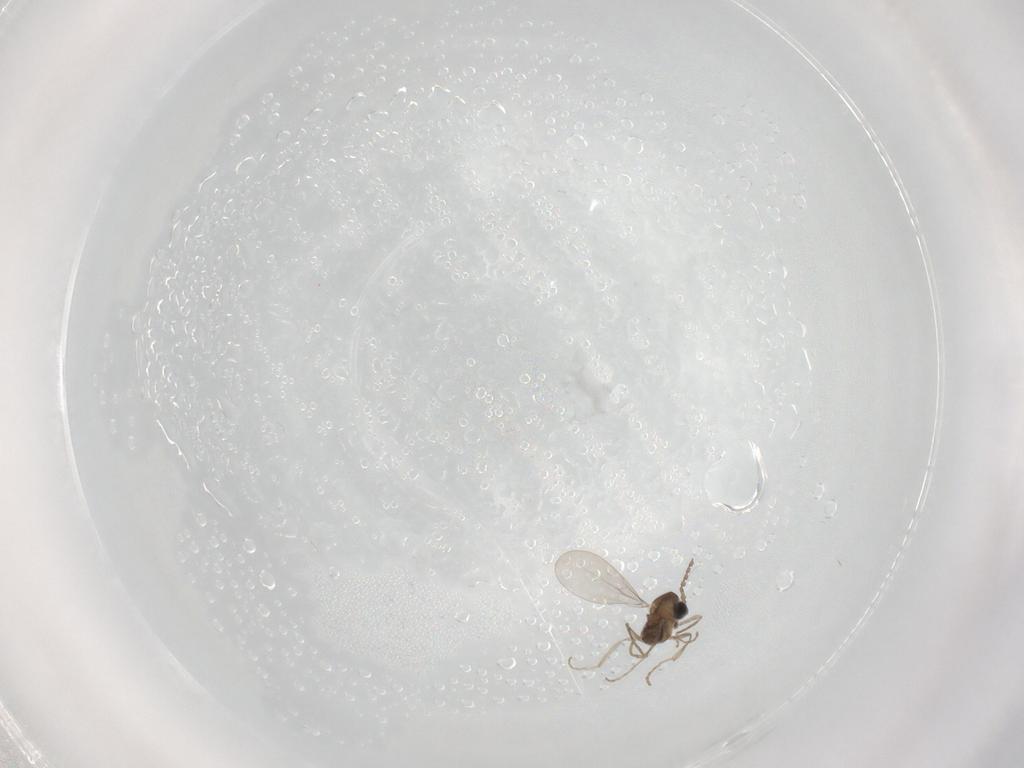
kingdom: Animalia
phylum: Arthropoda
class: Insecta
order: Diptera
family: Cecidomyiidae
